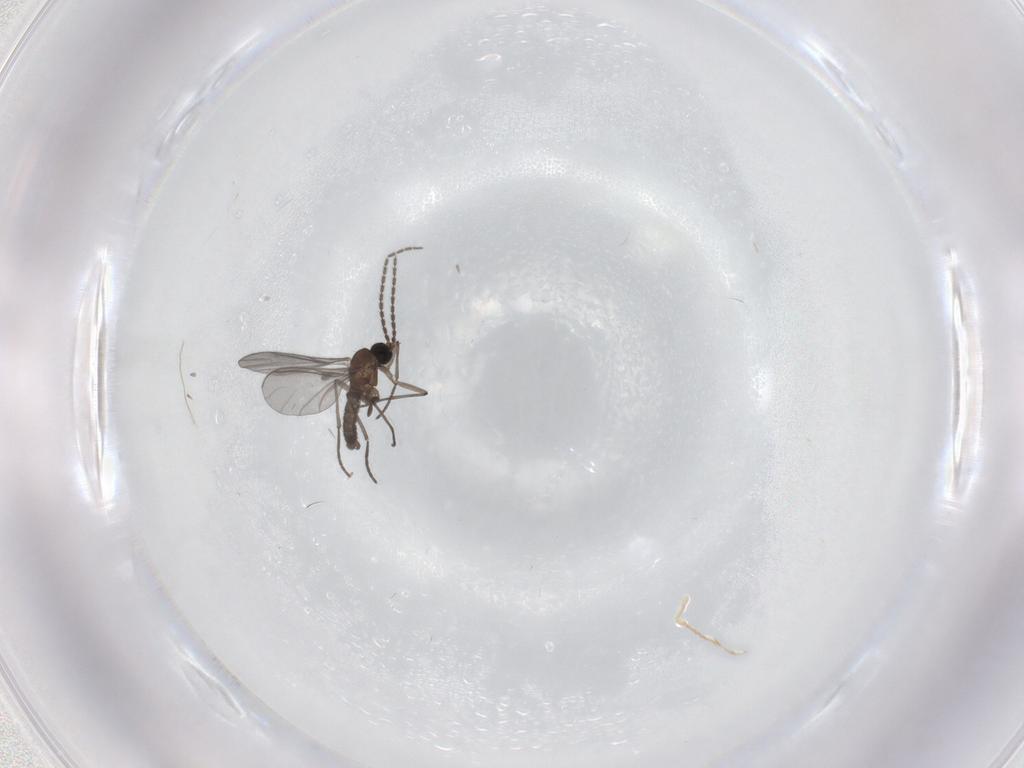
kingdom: Animalia
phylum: Arthropoda
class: Insecta
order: Diptera
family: Sciaridae
